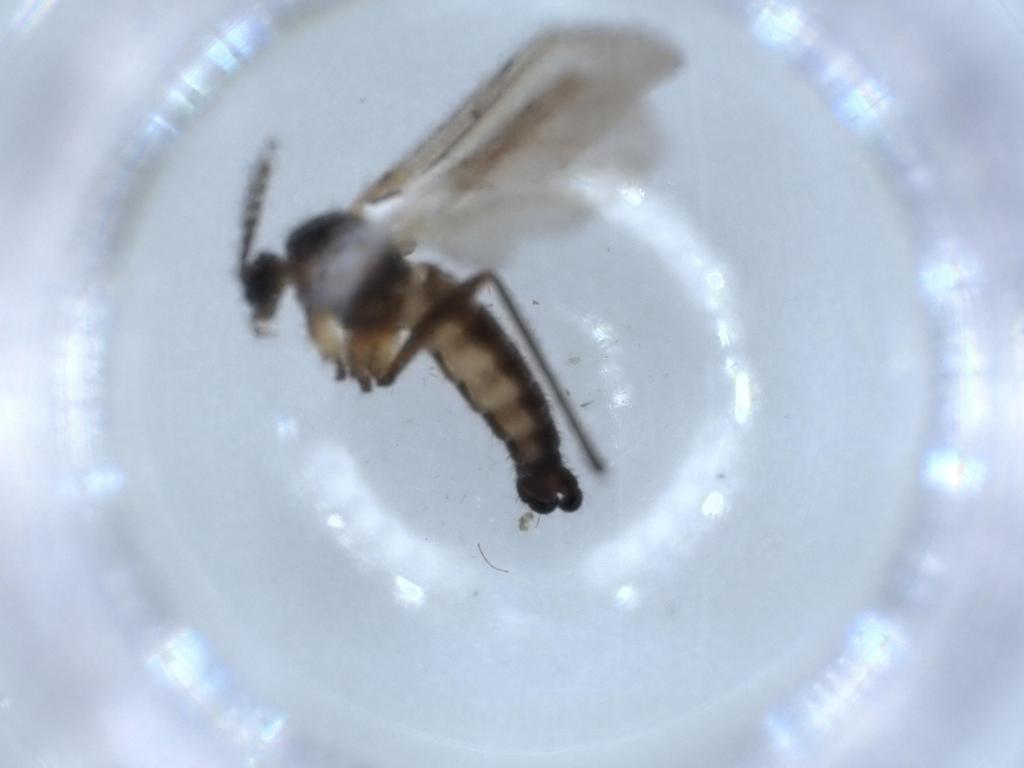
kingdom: Animalia
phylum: Arthropoda
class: Insecta
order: Diptera
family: Sciaridae
